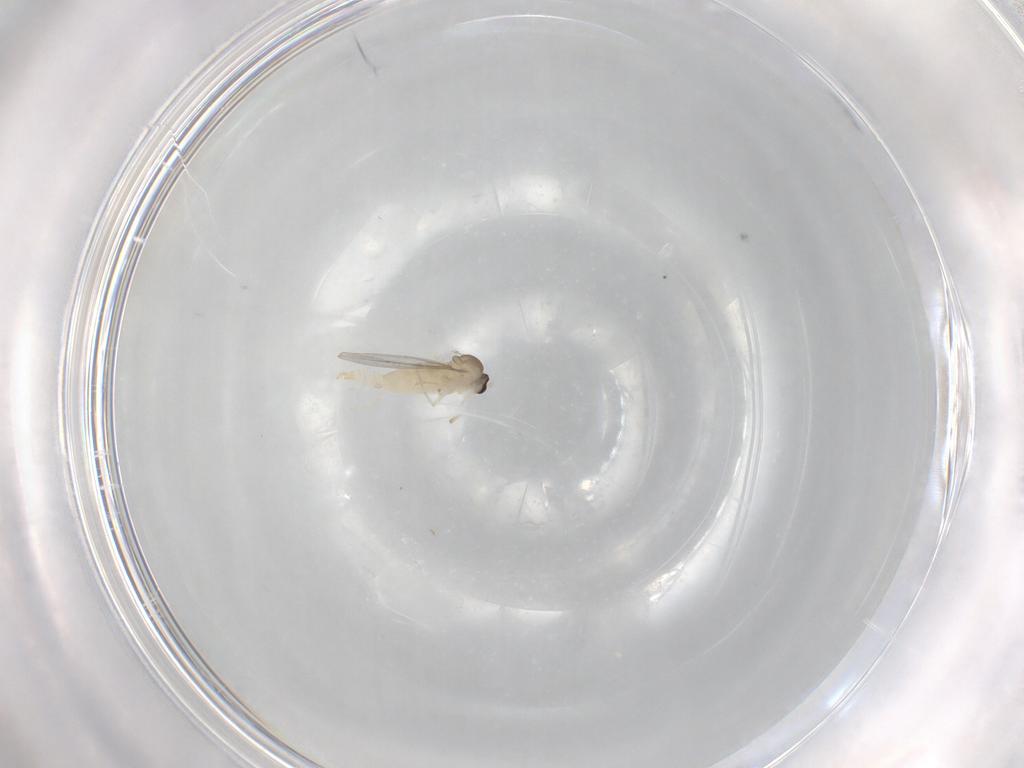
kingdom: Animalia
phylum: Arthropoda
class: Insecta
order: Diptera
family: Cecidomyiidae
